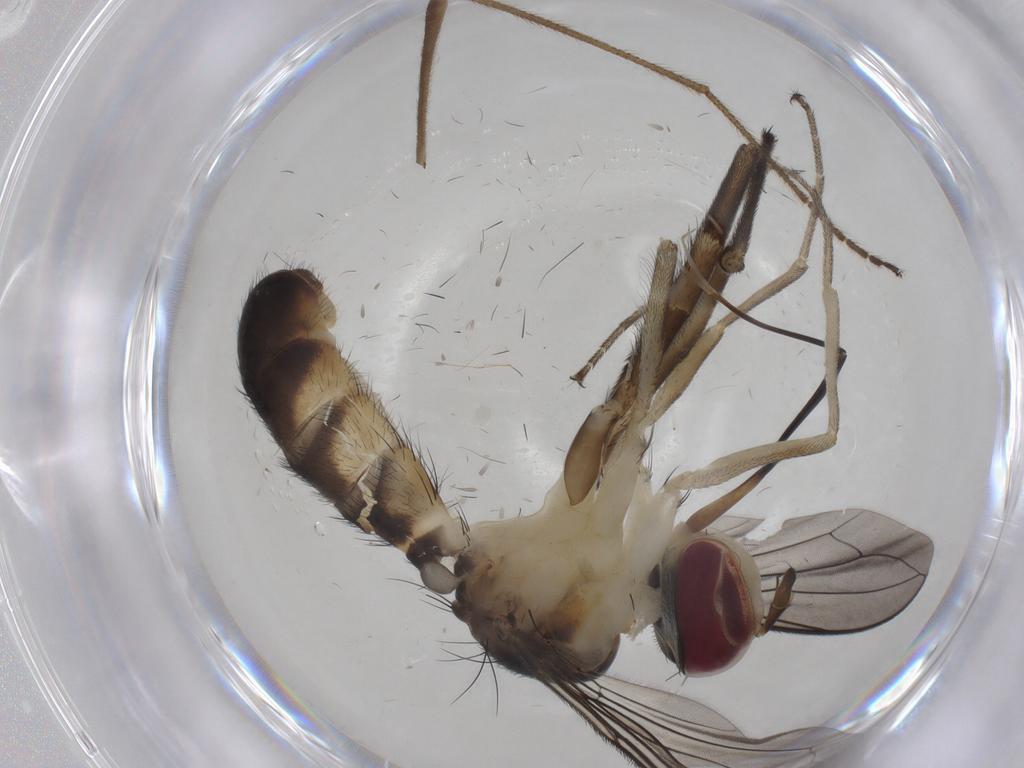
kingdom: Animalia
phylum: Arthropoda
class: Insecta
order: Diptera
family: Limoniidae
